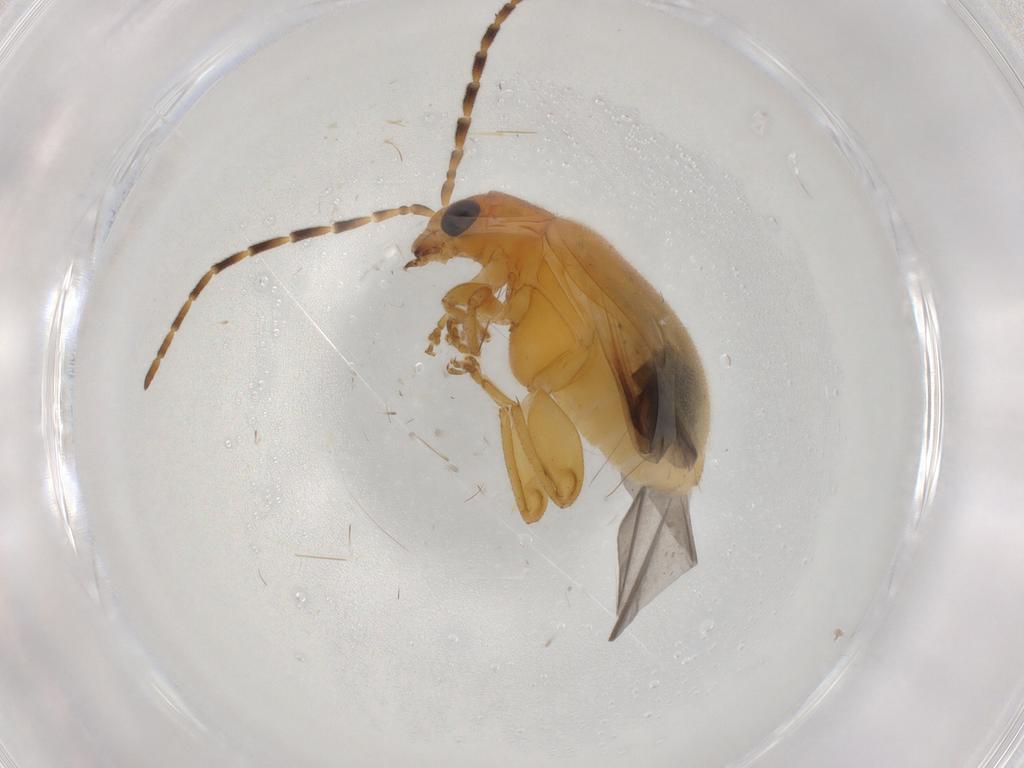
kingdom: Animalia
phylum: Arthropoda
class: Insecta
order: Coleoptera
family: Chrysomelidae
